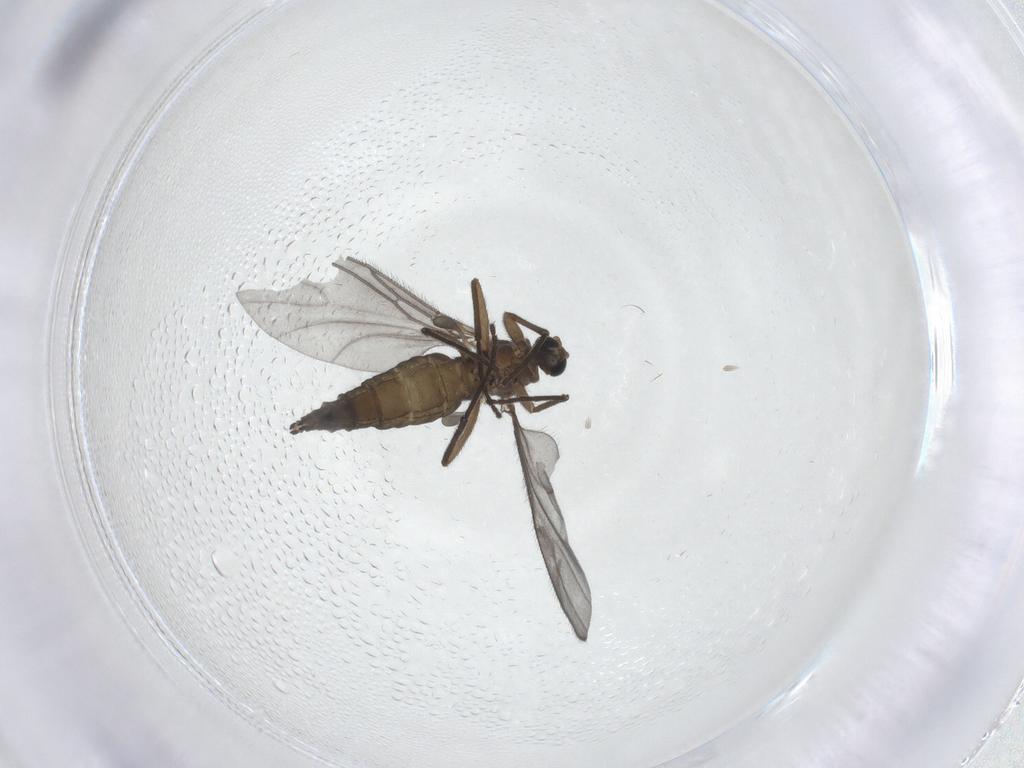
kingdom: Animalia
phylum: Arthropoda
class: Insecta
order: Diptera
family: Sciaridae
